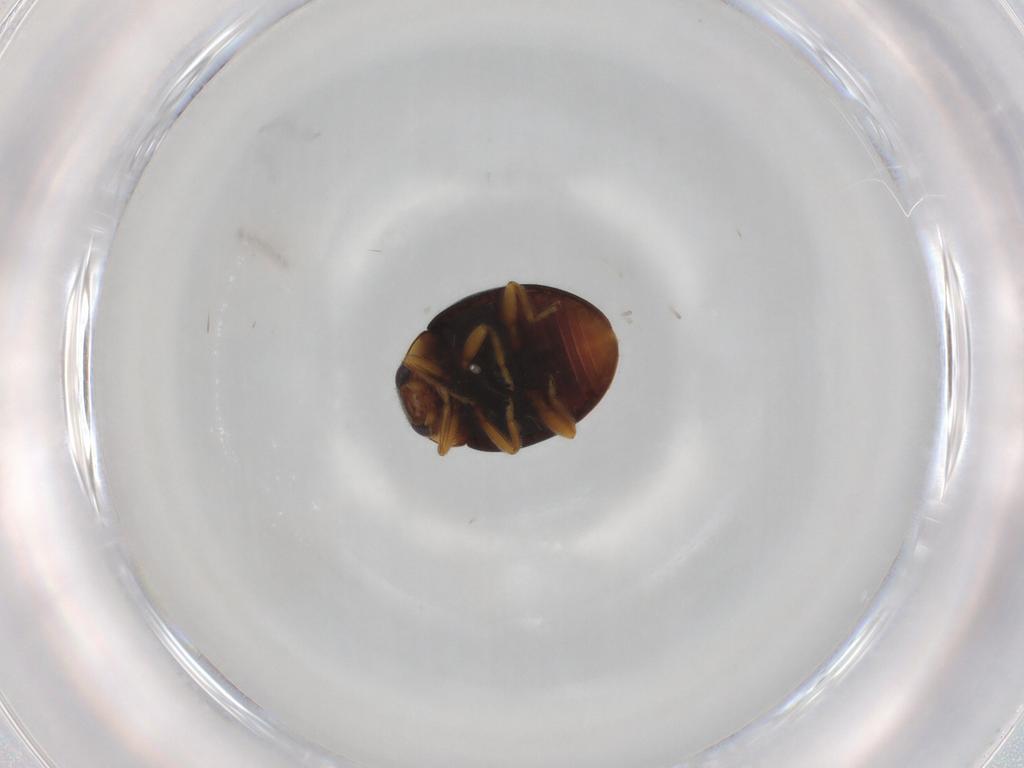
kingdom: Animalia
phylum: Arthropoda
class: Insecta
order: Coleoptera
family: Coccinellidae
